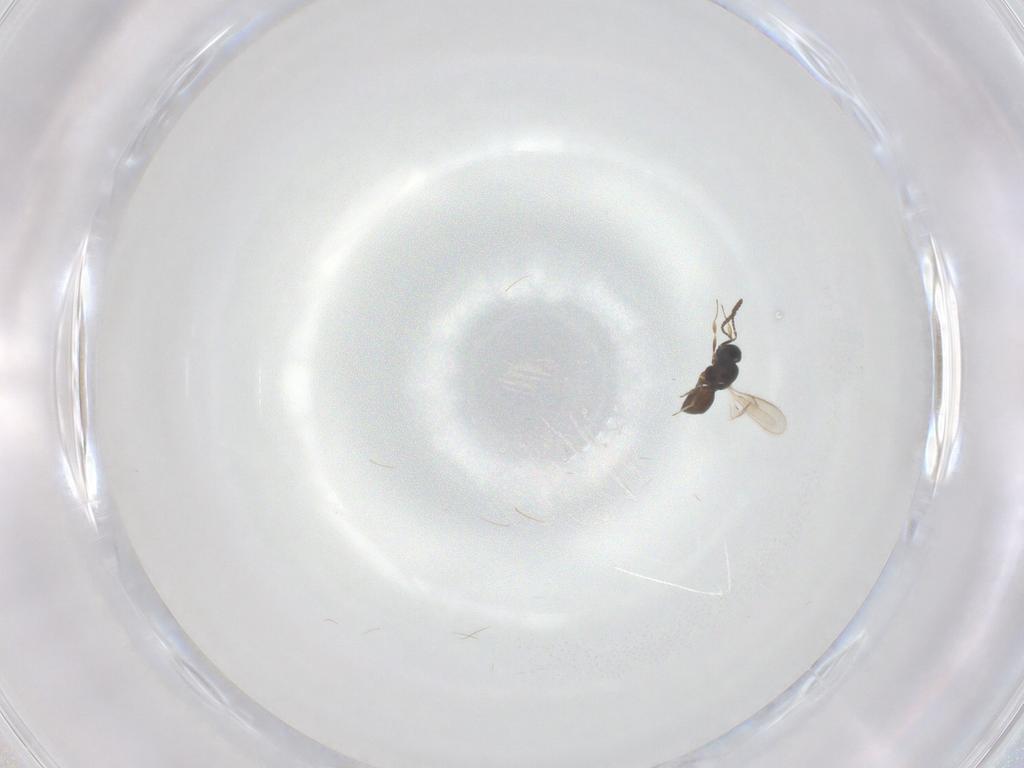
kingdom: Animalia
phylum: Arthropoda
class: Insecta
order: Hymenoptera
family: Scelionidae
